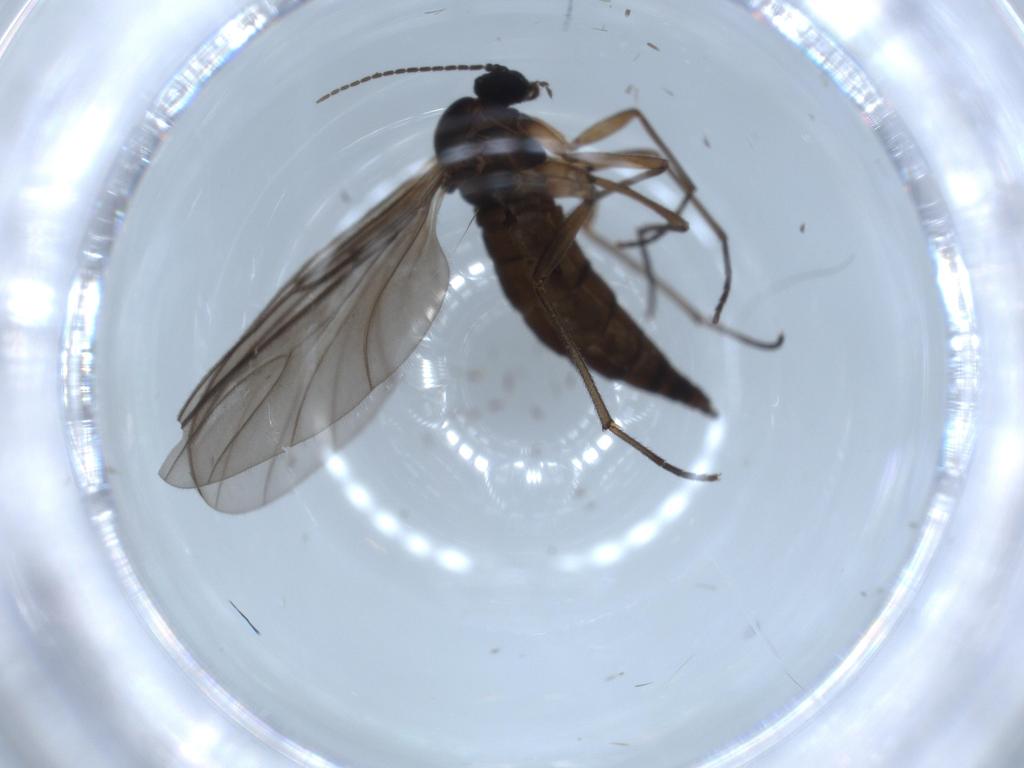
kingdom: Animalia
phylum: Arthropoda
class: Insecta
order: Diptera
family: Sciaridae
